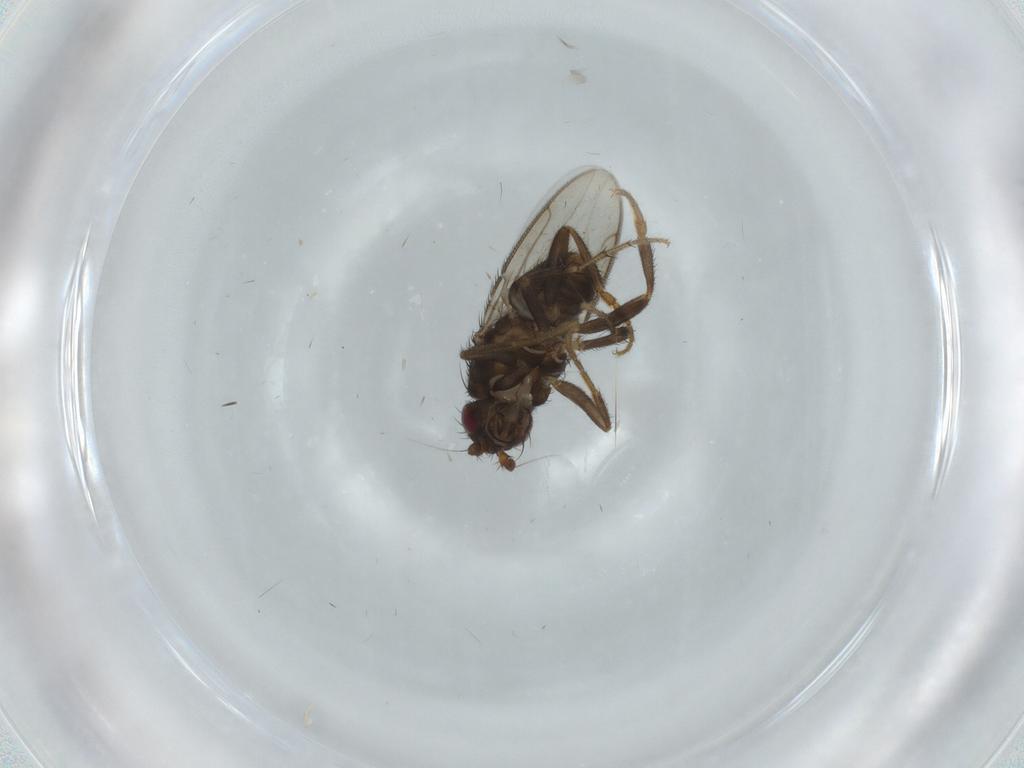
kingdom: Animalia
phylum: Arthropoda
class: Insecta
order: Diptera
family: Sphaeroceridae
